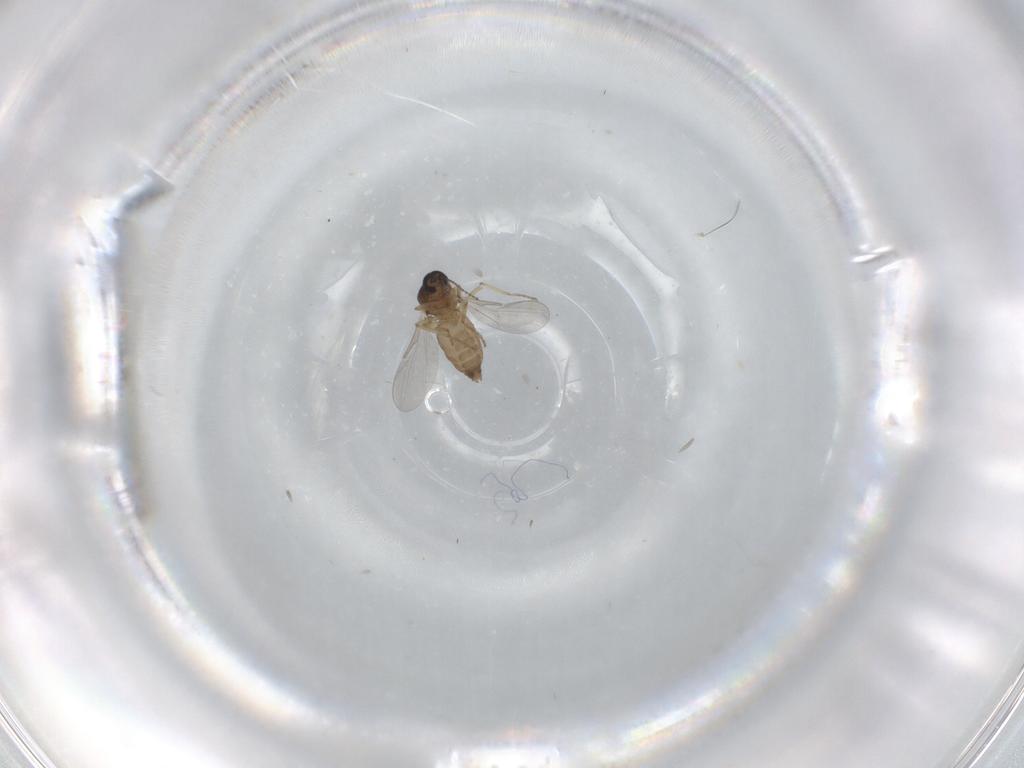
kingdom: Animalia
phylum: Arthropoda
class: Insecta
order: Diptera
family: Ceratopogonidae
